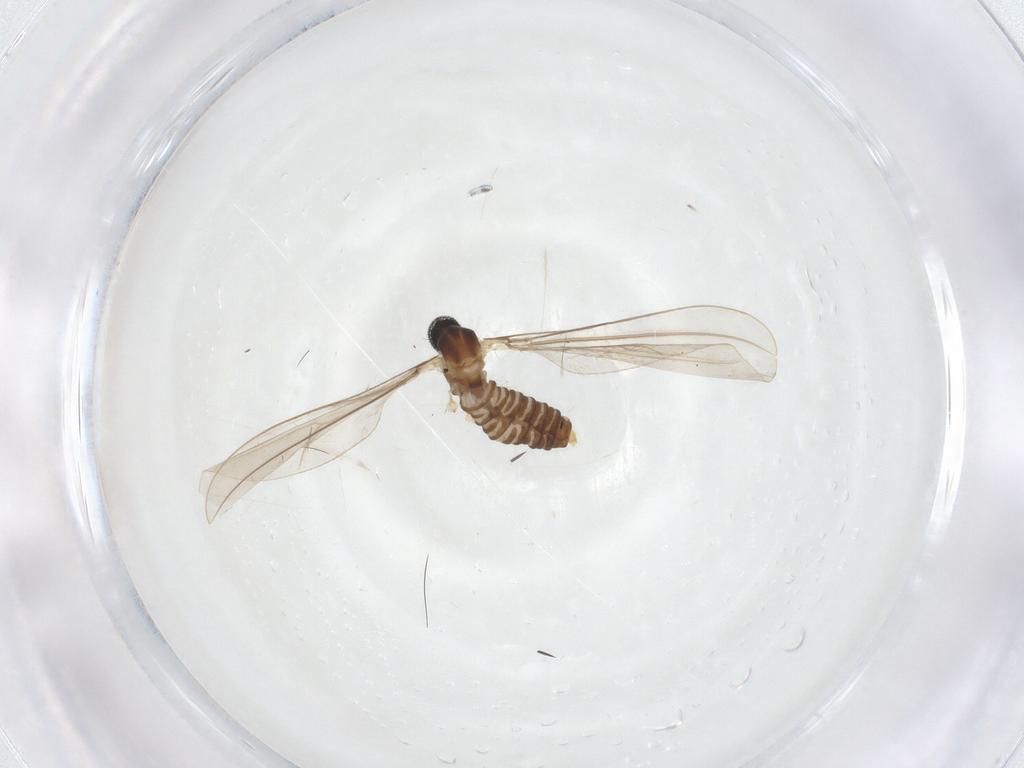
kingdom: Animalia
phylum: Arthropoda
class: Insecta
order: Diptera
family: Cecidomyiidae
